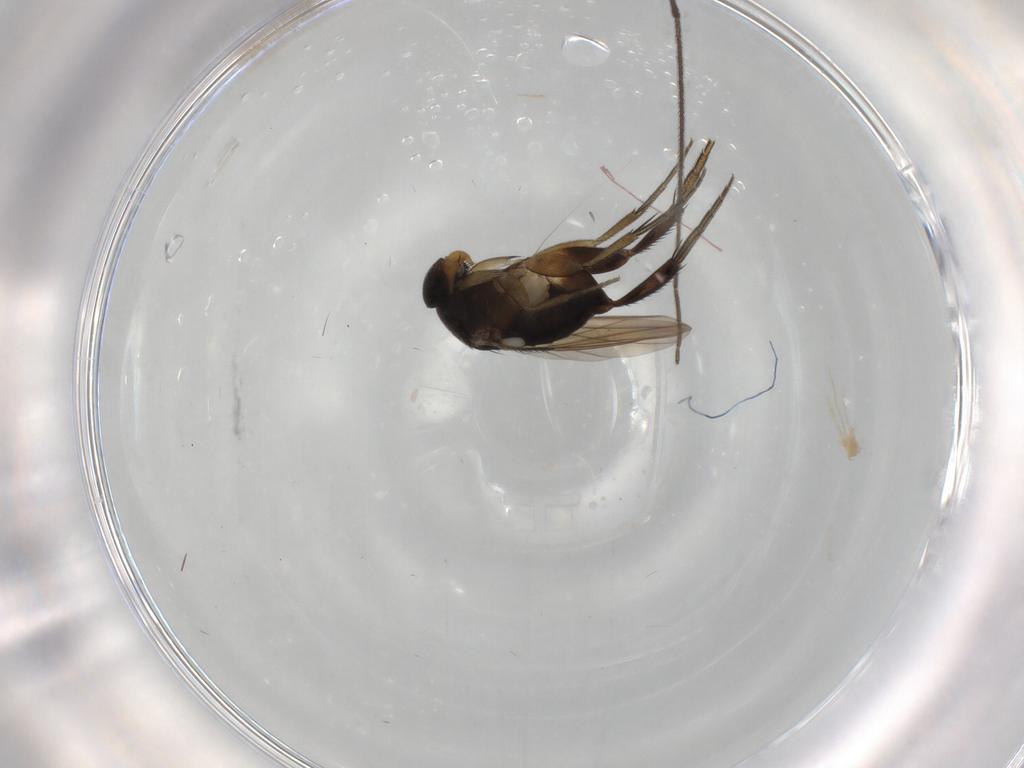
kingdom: Animalia
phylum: Arthropoda
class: Insecta
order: Diptera
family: Phoridae
